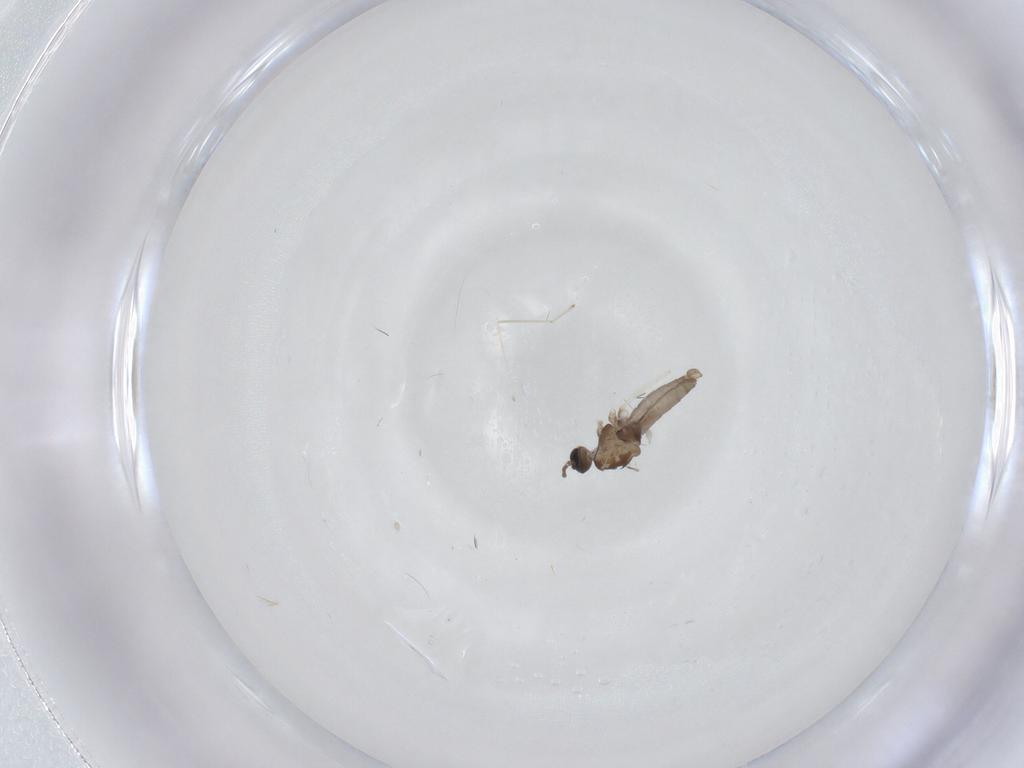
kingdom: Animalia
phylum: Arthropoda
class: Insecta
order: Diptera
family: Cecidomyiidae
